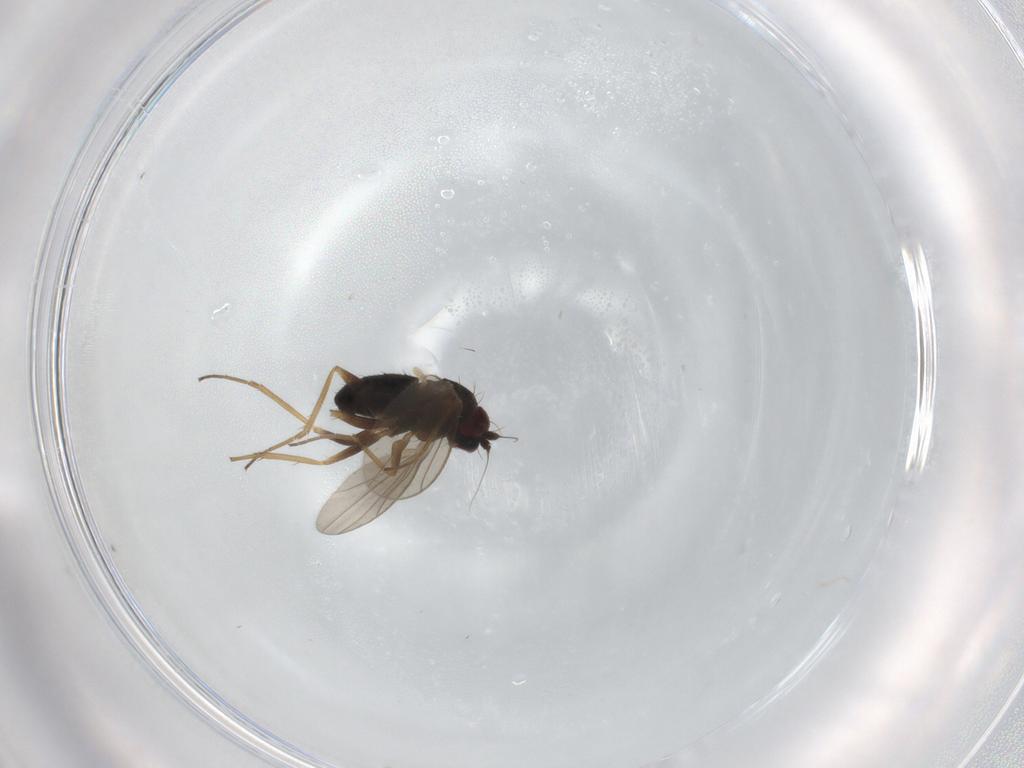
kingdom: Animalia
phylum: Arthropoda
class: Insecta
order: Diptera
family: Dolichopodidae
